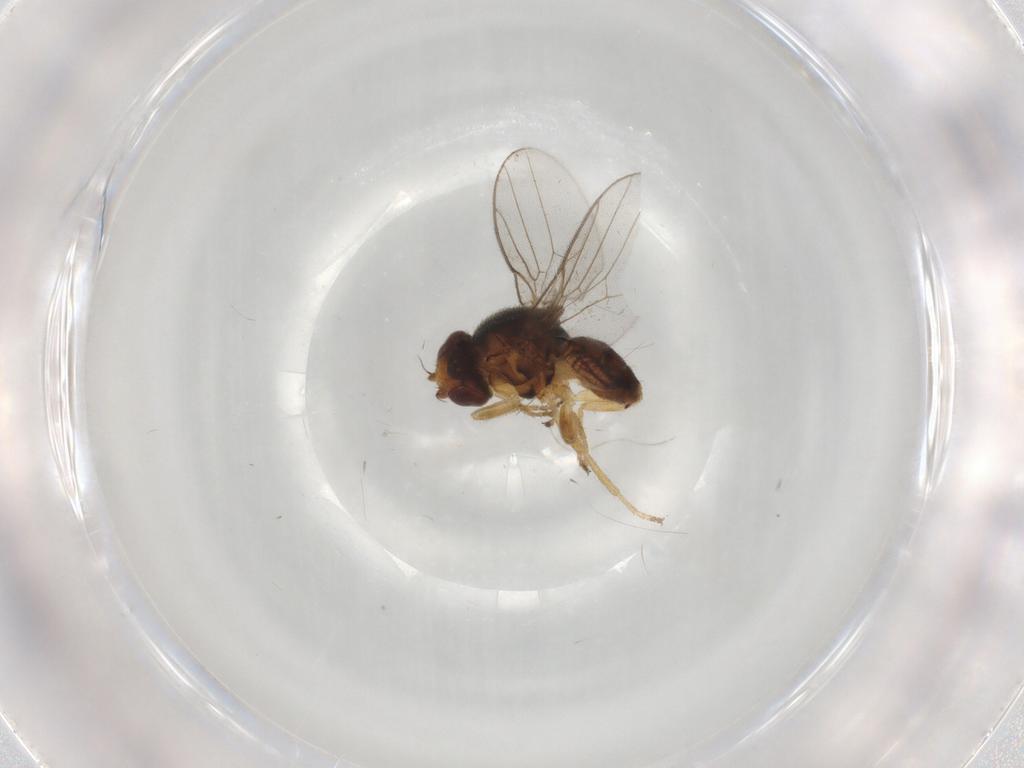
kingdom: Animalia
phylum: Arthropoda
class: Insecta
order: Diptera
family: Chloropidae
